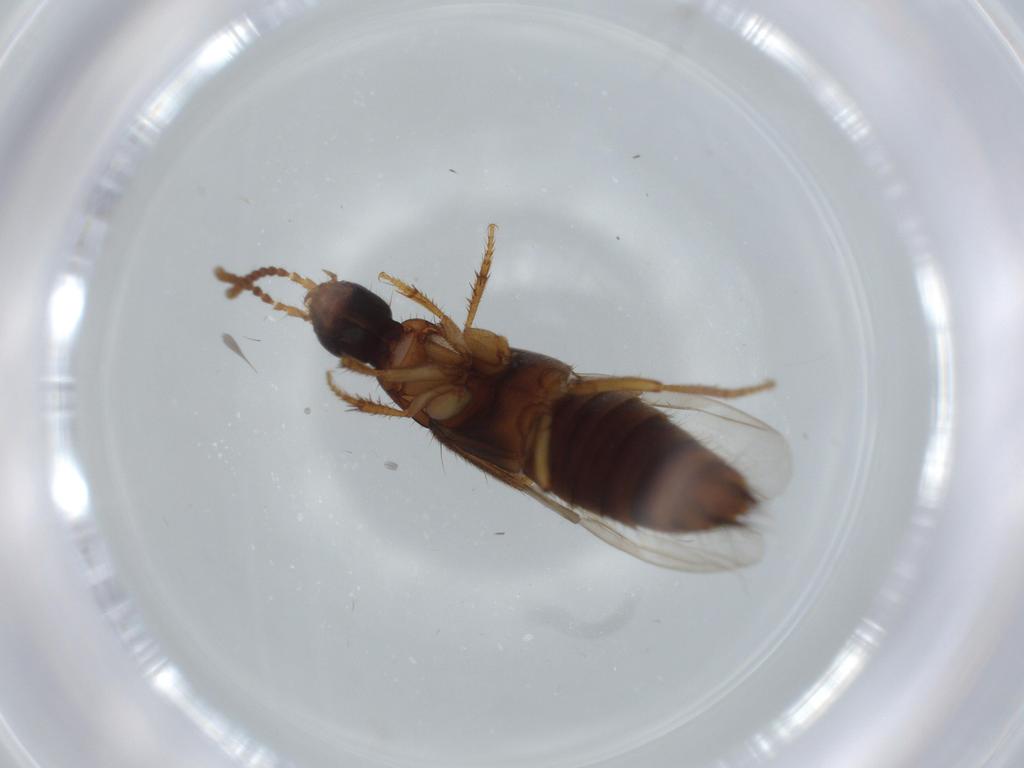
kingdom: Animalia
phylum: Arthropoda
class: Insecta
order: Coleoptera
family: Staphylinidae
